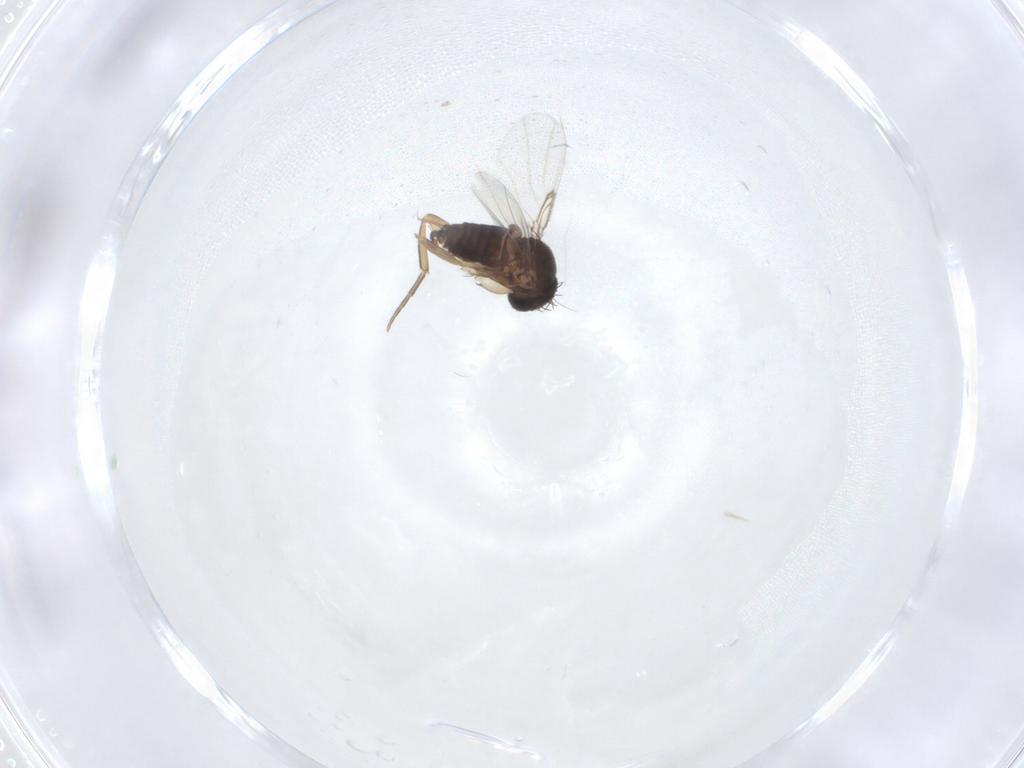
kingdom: Animalia
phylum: Arthropoda
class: Insecta
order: Diptera
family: Phoridae
